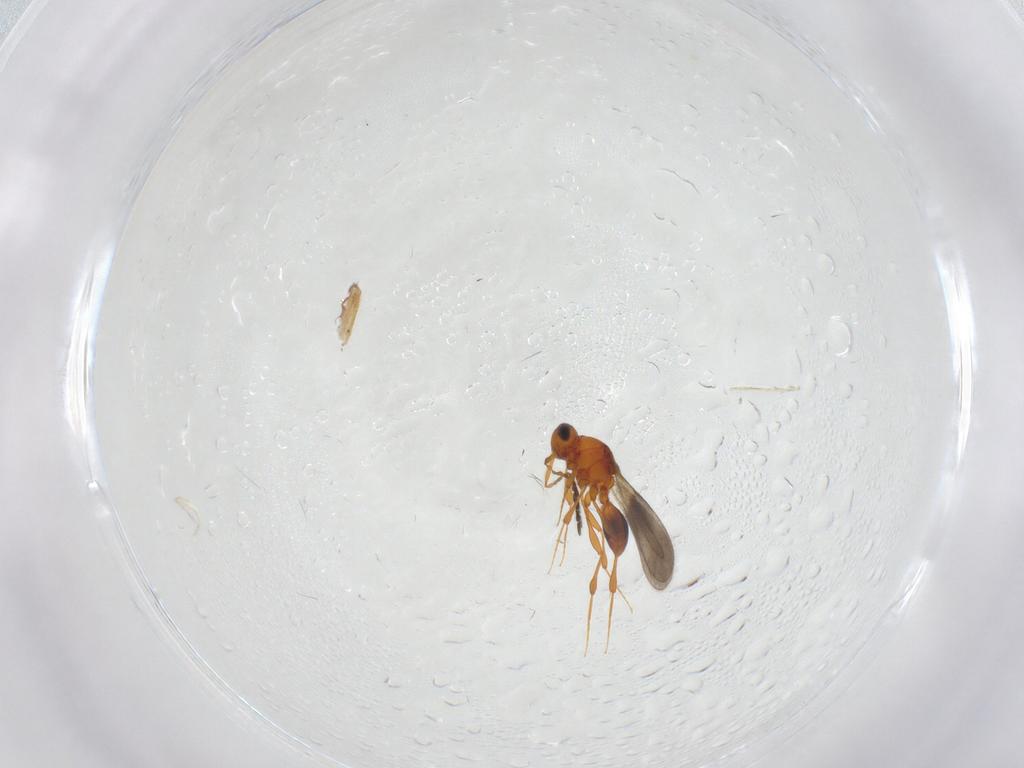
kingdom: Animalia
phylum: Arthropoda
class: Insecta
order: Hymenoptera
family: Platygastridae
